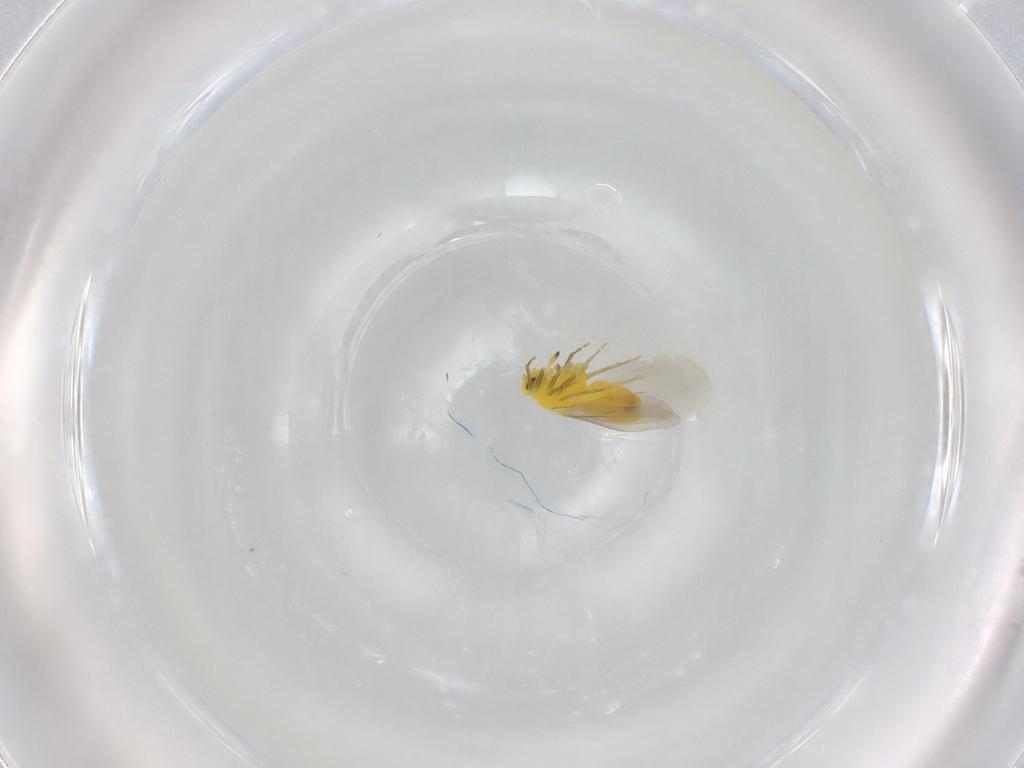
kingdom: Animalia
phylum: Arthropoda
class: Insecta
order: Hemiptera
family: Aleyrodidae
